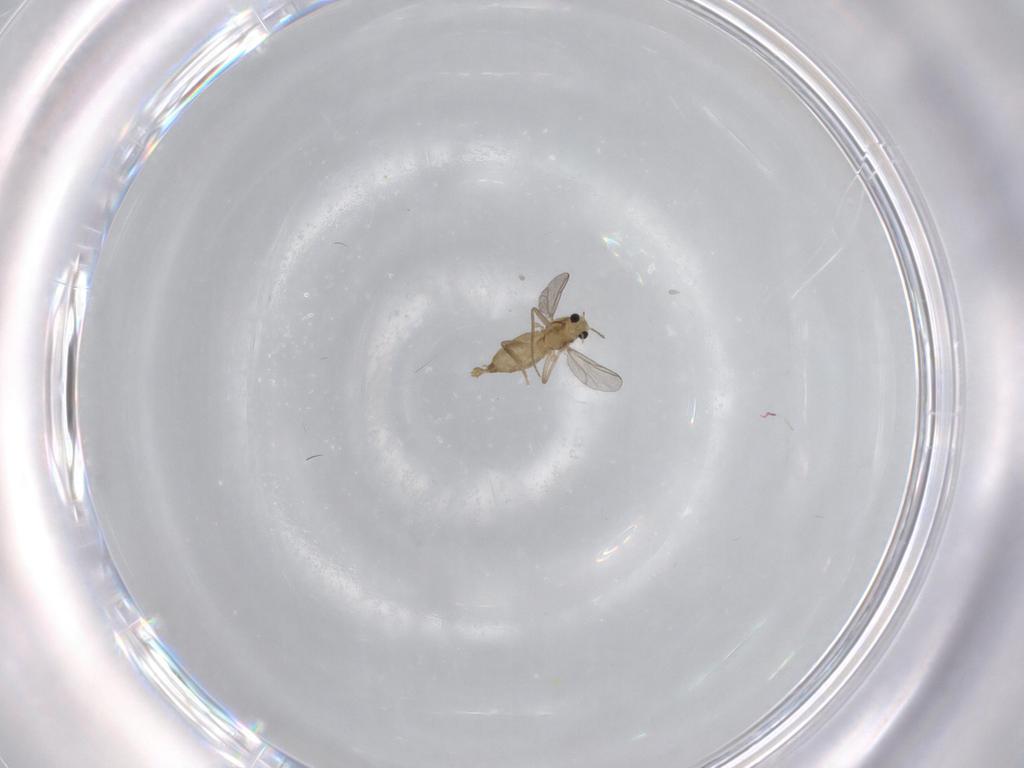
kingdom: Animalia
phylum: Arthropoda
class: Insecta
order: Diptera
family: Chironomidae
